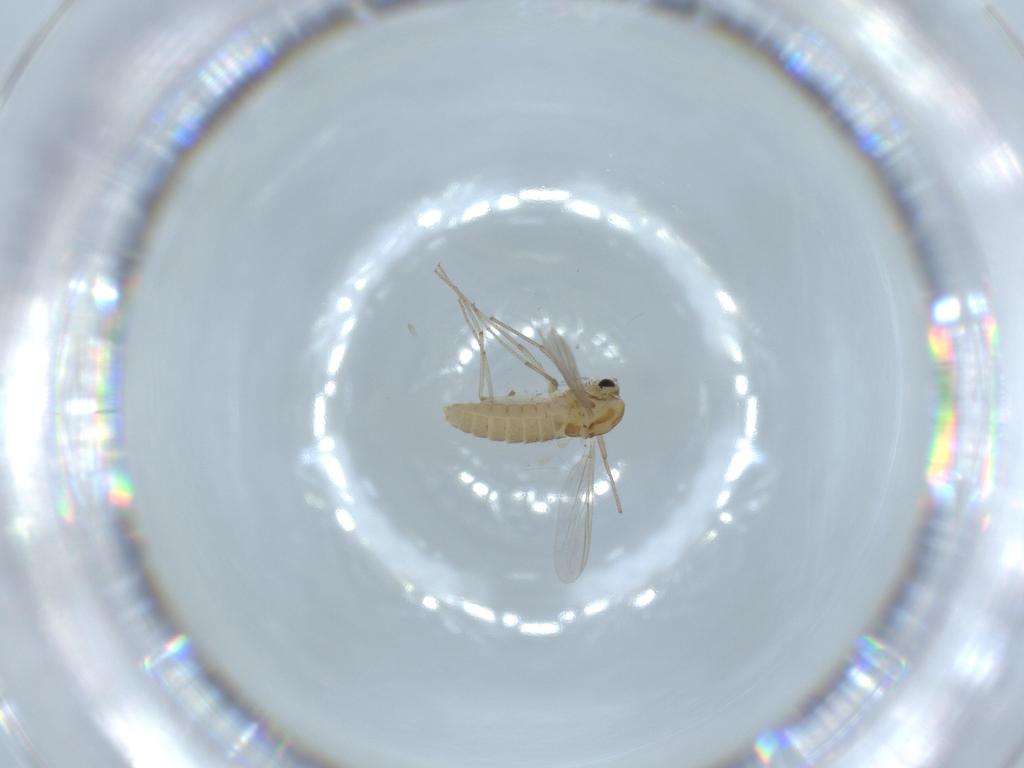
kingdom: Animalia
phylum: Arthropoda
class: Insecta
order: Diptera
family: Chironomidae
